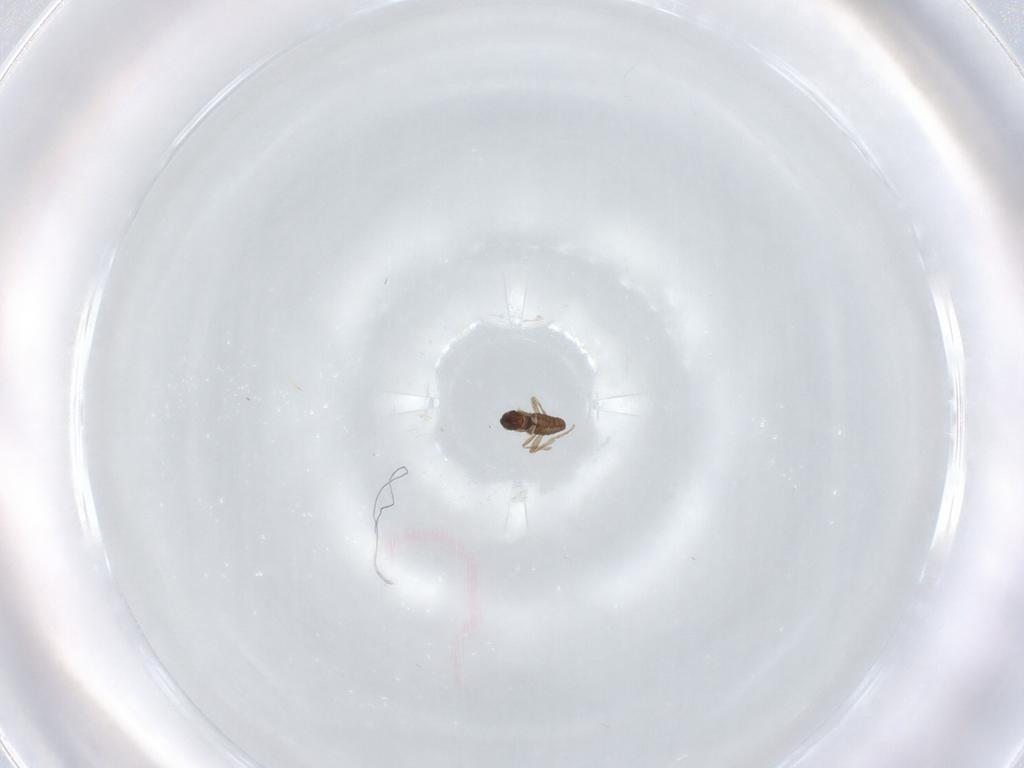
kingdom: Animalia
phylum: Arthropoda
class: Insecta
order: Diptera
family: Cecidomyiidae
